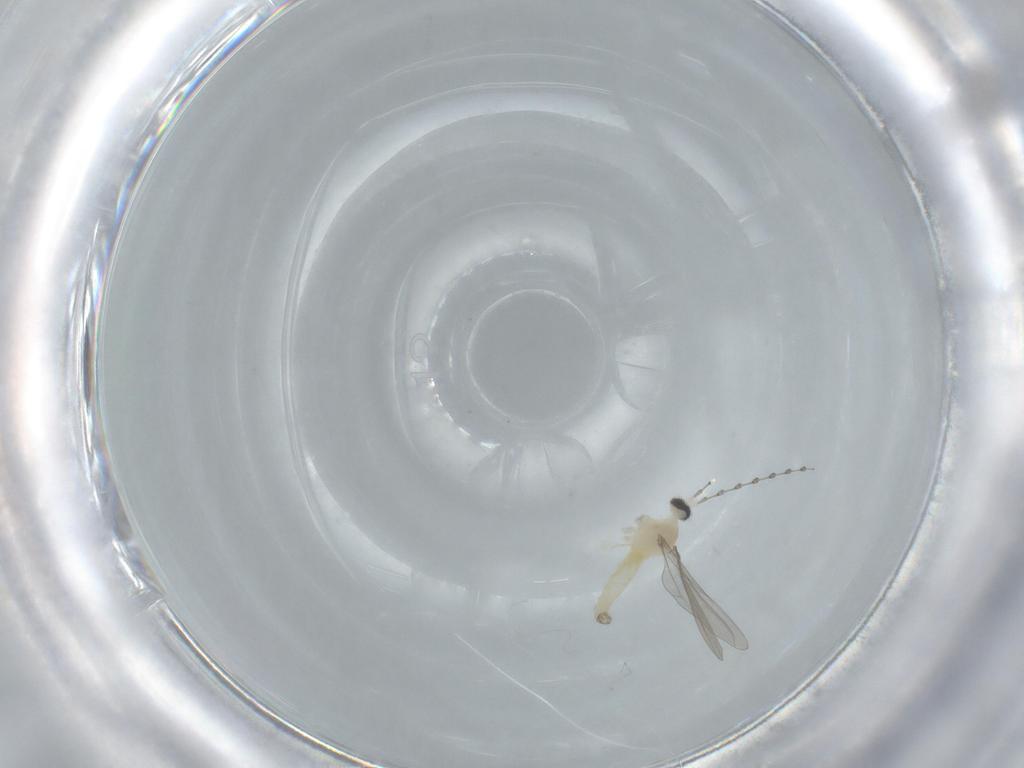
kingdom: Animalia
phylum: Arthropoda
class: Insecta
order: Diptera
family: Cecidomyiidae
